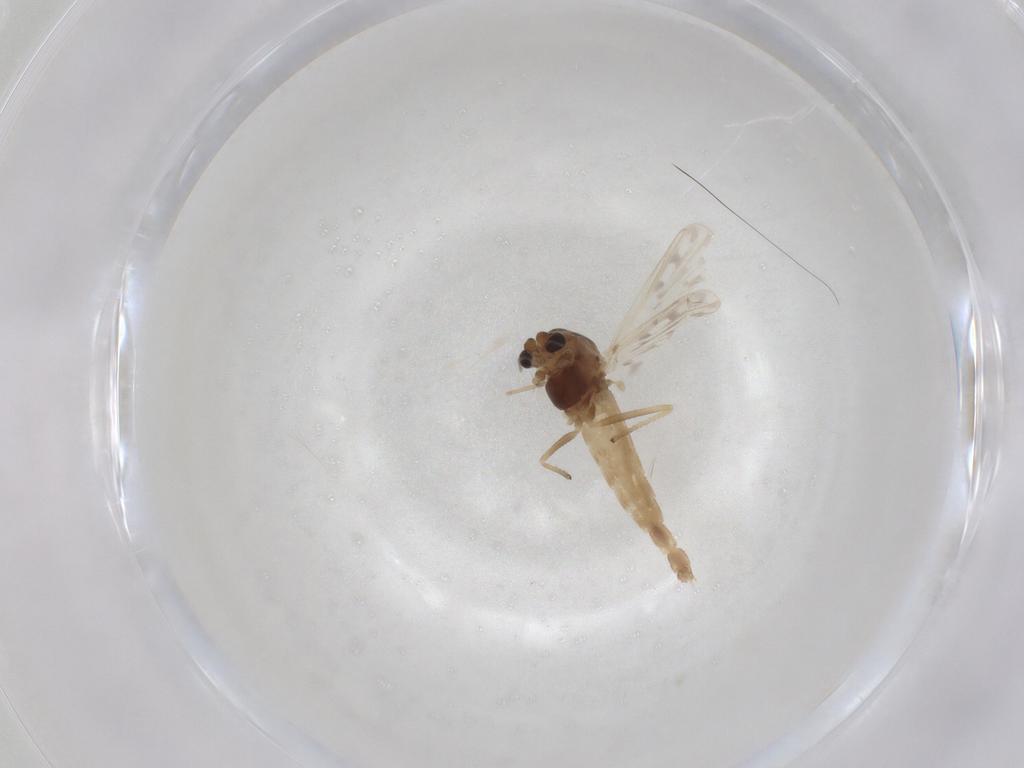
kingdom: Animalia
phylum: Arthropoda
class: Insecta
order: Diptera
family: Chironomidae
